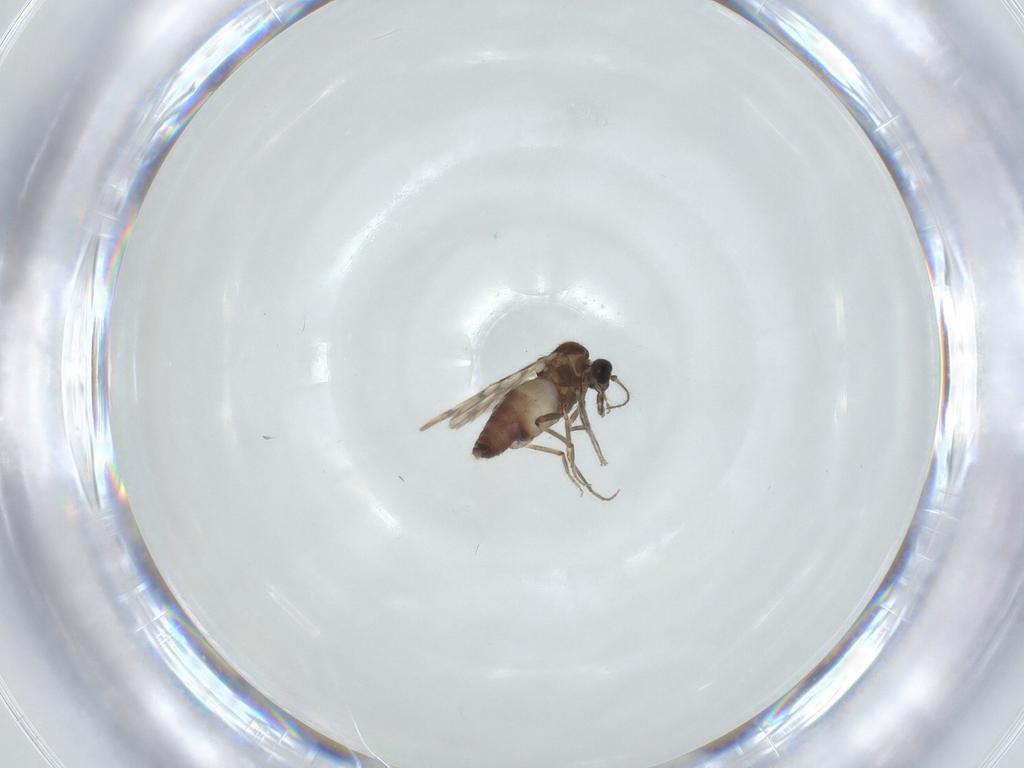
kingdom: Animalia
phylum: Arthropoda
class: Insecta
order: Diptera
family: Ceratopogonidae
